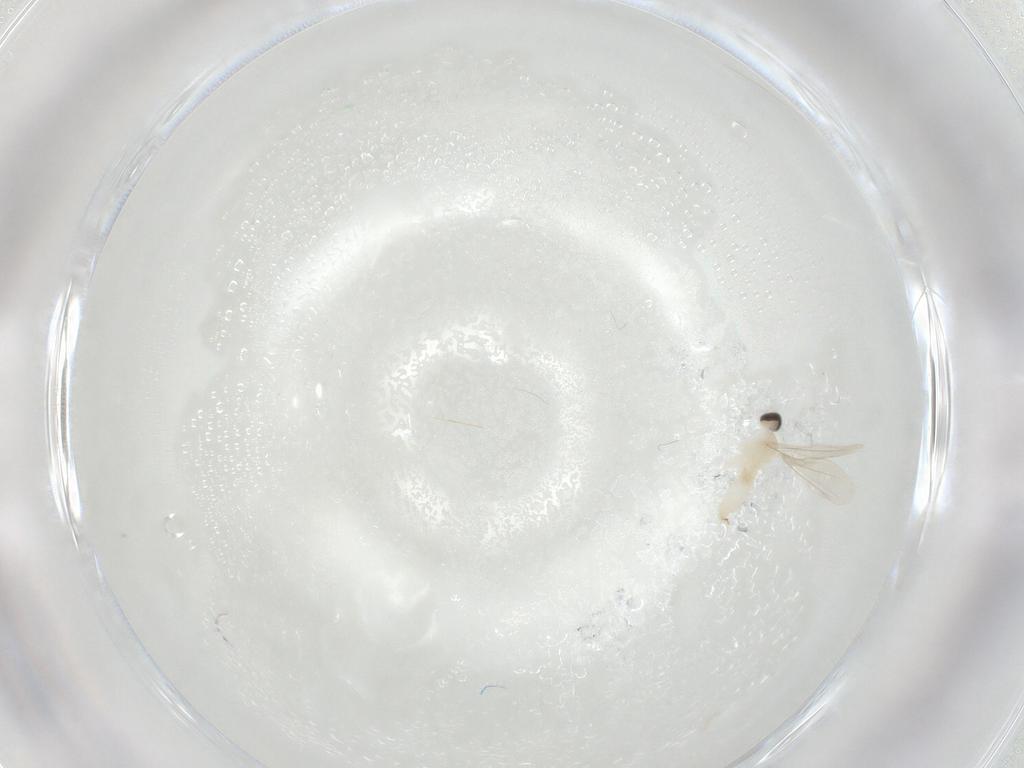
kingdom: Animalia
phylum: Arthropoda
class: Insecta
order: Diptera
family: Cecidomyiidae
